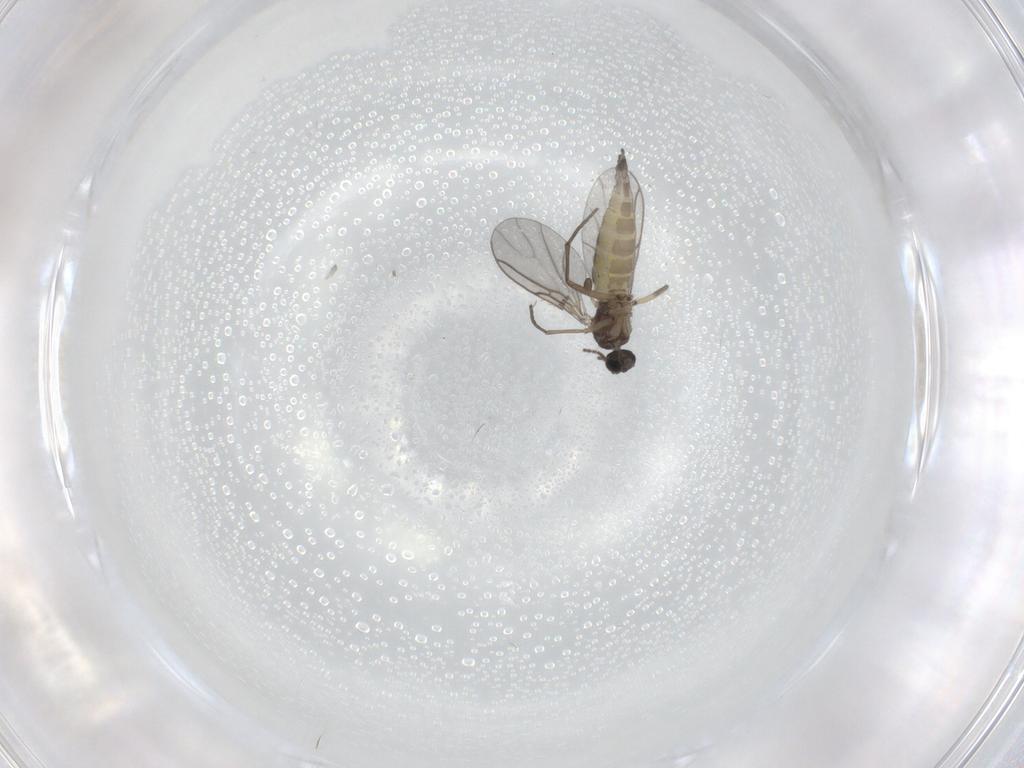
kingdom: Animalia
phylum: Arthropoda
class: Insecta
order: Diptera
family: Sciaridae
